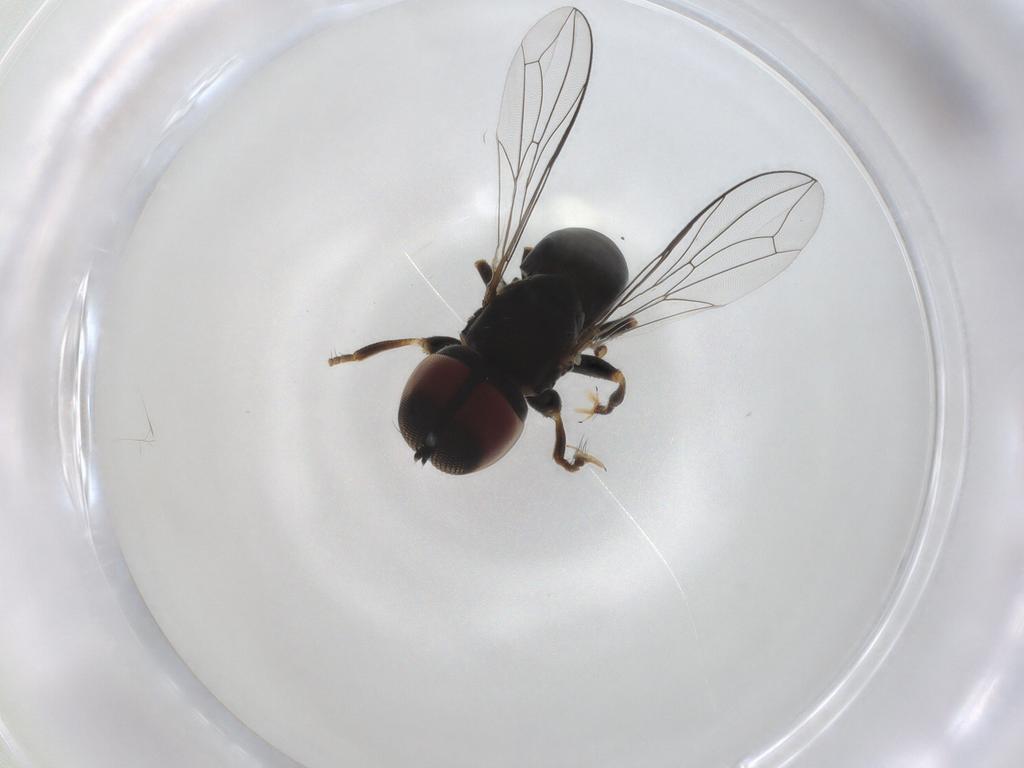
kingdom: Animalia
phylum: Arthropoda
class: Insecta
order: Diptera
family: Pipunculidae
